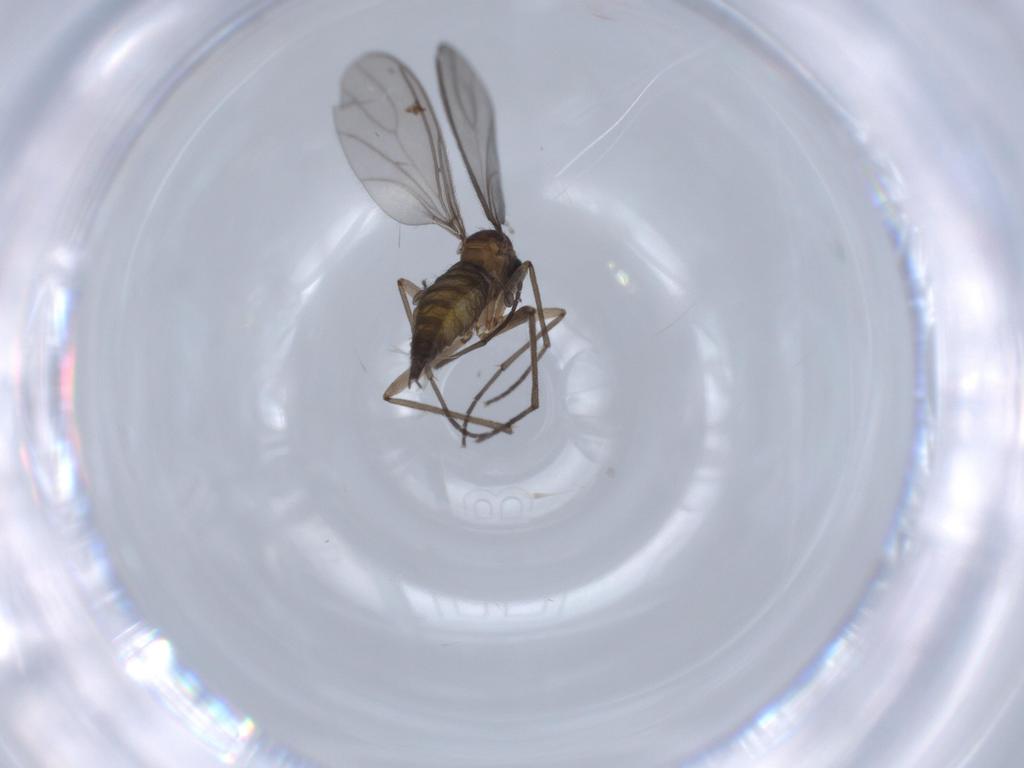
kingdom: Animalia
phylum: Arthropoda
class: Insecta
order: Diptera
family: Sciaridae
